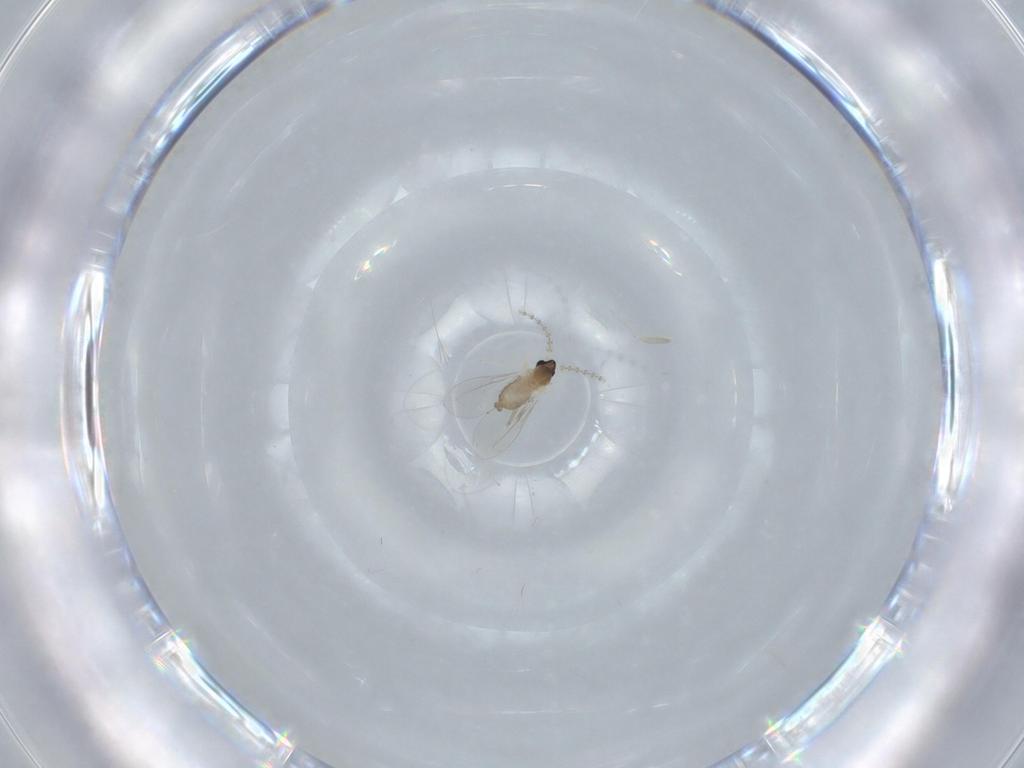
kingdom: Animalia
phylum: Arthropoda
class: Insecta
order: Diptera
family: Cecidomyiidae
